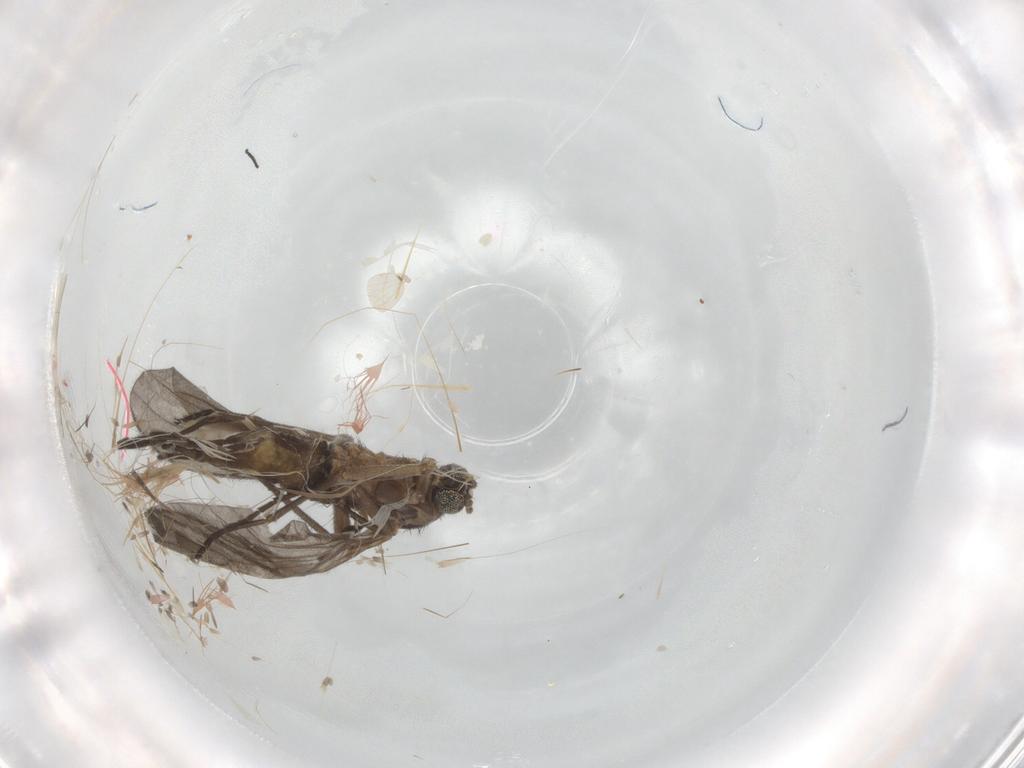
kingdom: Animalia
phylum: Arthropoda
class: Insecta
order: Diptera
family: Sciaridae
